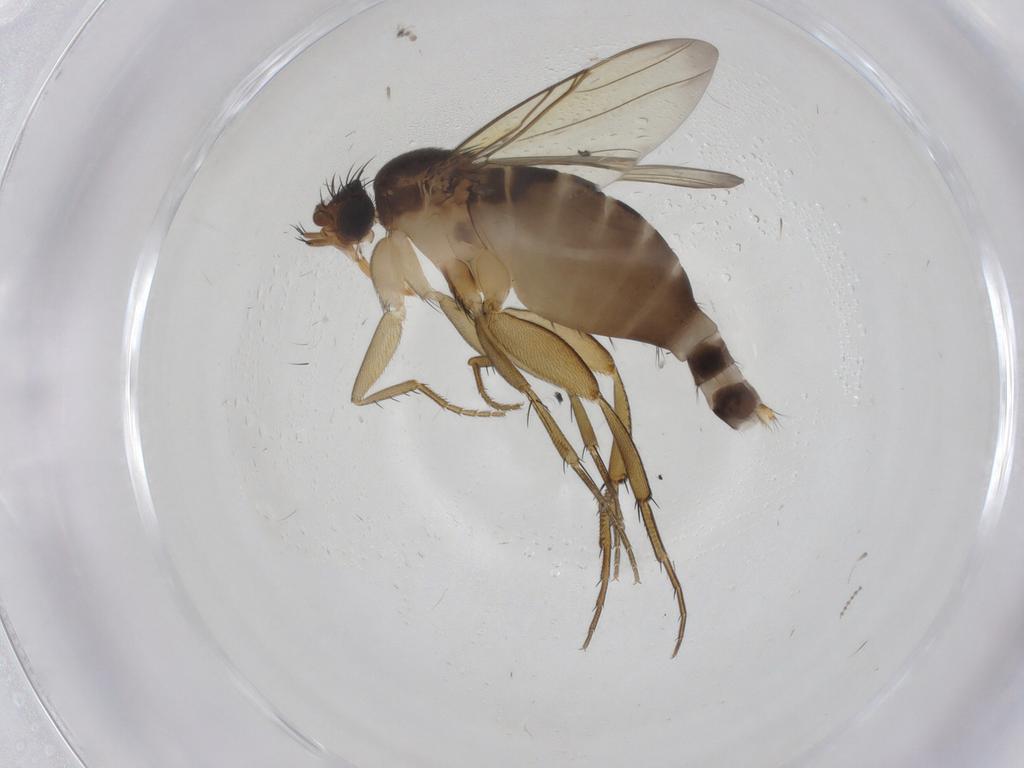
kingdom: Animalia
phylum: Arthropoda
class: Insecta
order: Diptera
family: Phoridae
